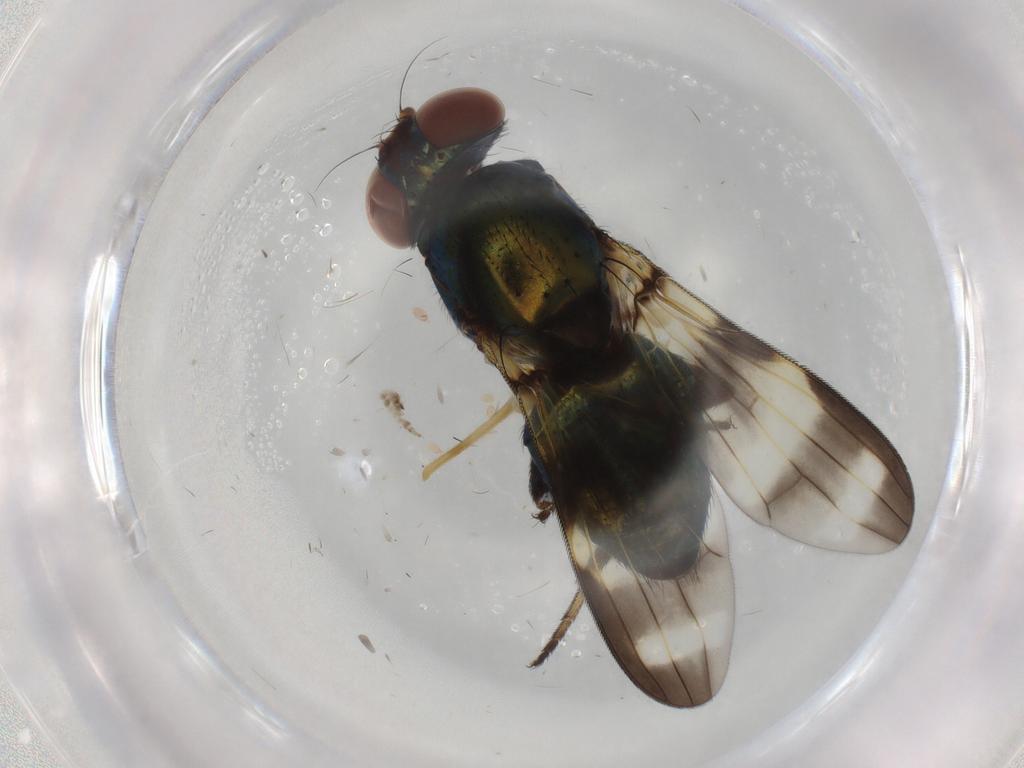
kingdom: Animalia
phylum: Arthropoda
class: Insecta
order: Diptera
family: Ulidiidae
